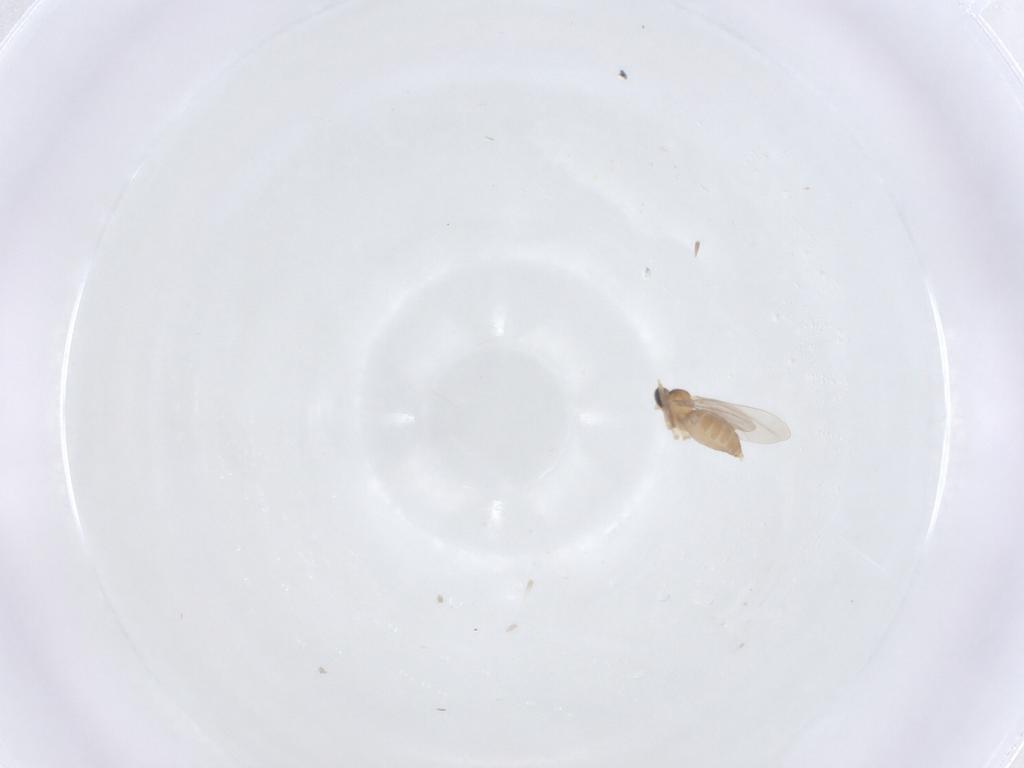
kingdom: Animalia
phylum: Arthropoda
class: Insecta
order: Diptera
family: Cecidomyiidae
